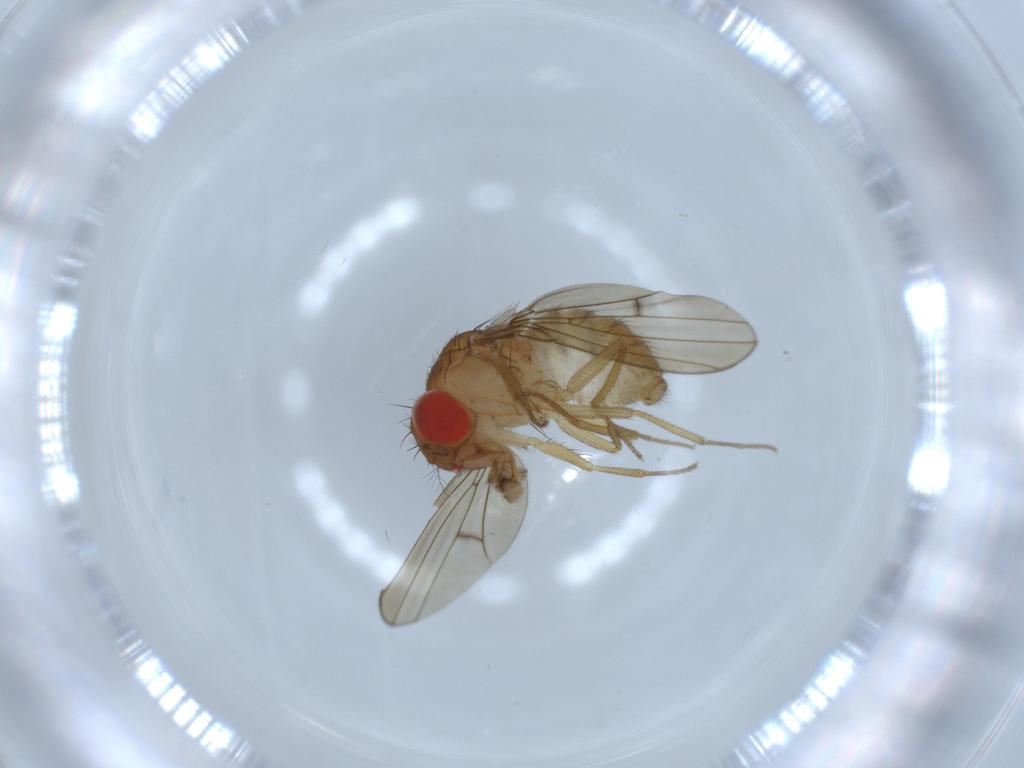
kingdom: Animalia
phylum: Arthropoda
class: Insecta
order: Diptera
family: Drosophilidae
